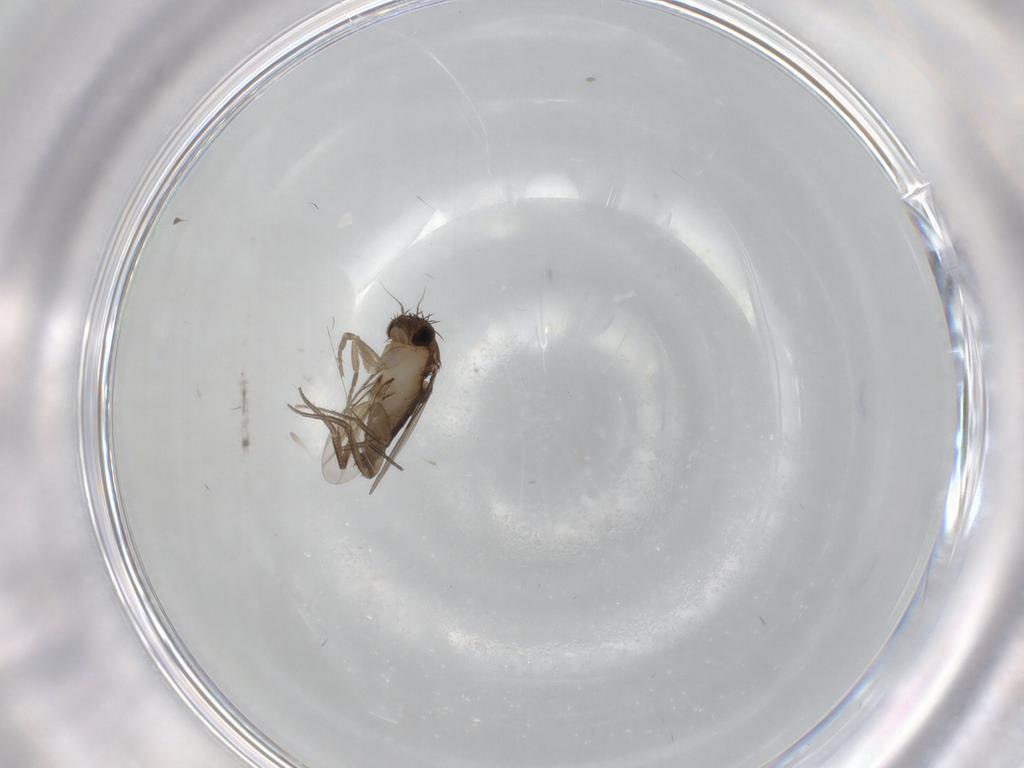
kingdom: Animalia
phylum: Arthropoda
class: Insecta
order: Diptera
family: Phoridae
